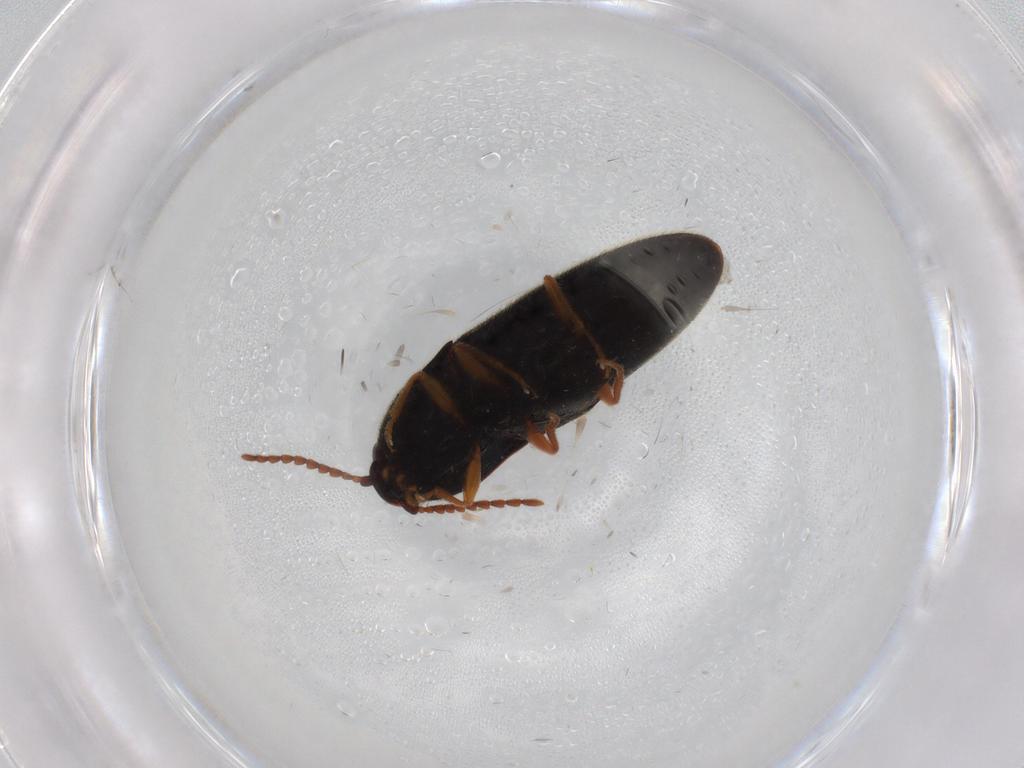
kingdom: Animalia
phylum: Arthropoda
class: Insecta
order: Coleoptera
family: Elateridae
